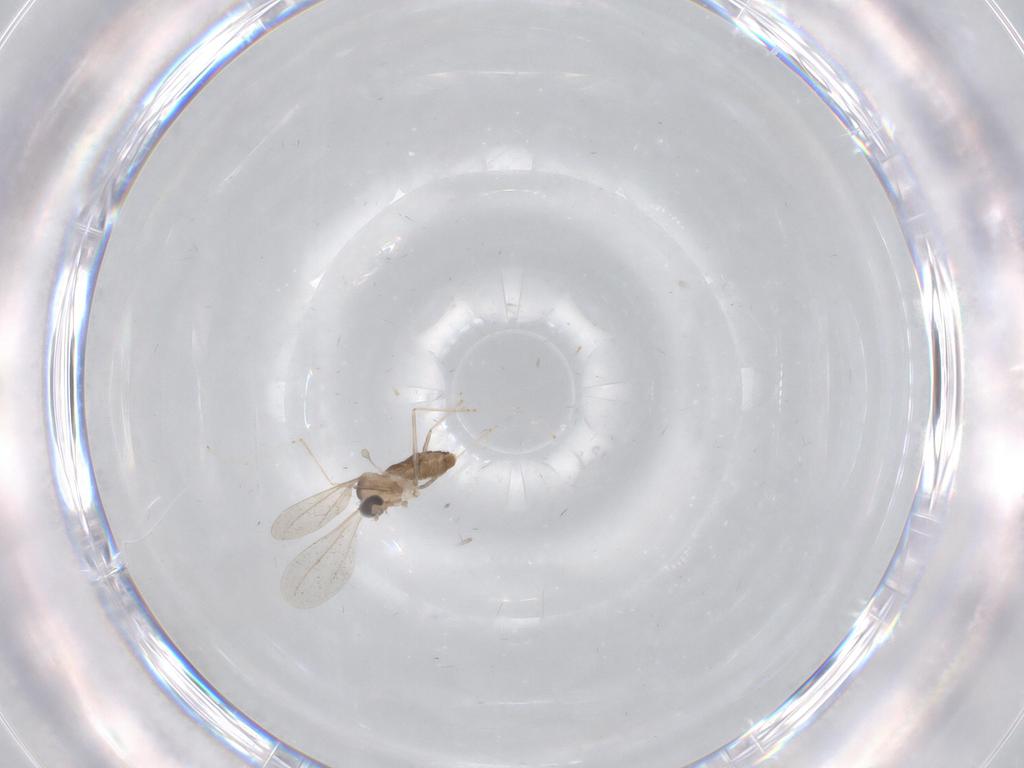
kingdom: Animalia
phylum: Arthropoda
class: Insecta
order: Diptera
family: Cecidomyiidae
